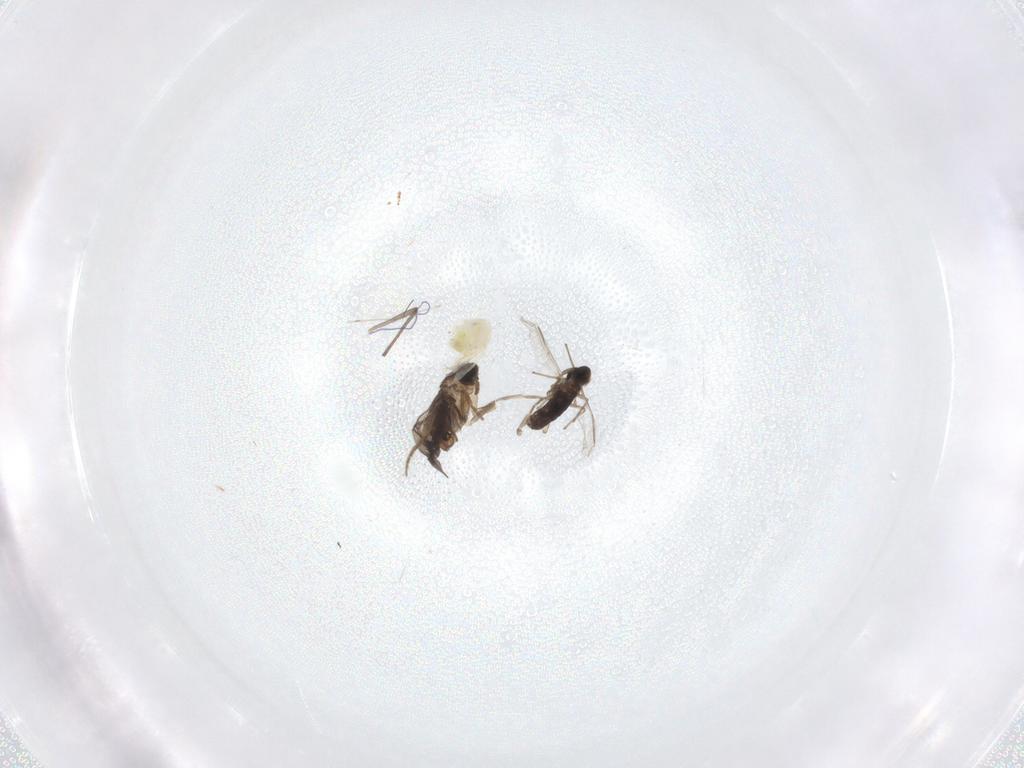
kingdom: Animalia
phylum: Arthropoda
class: Insecta
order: Diptera
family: Chironomidae
